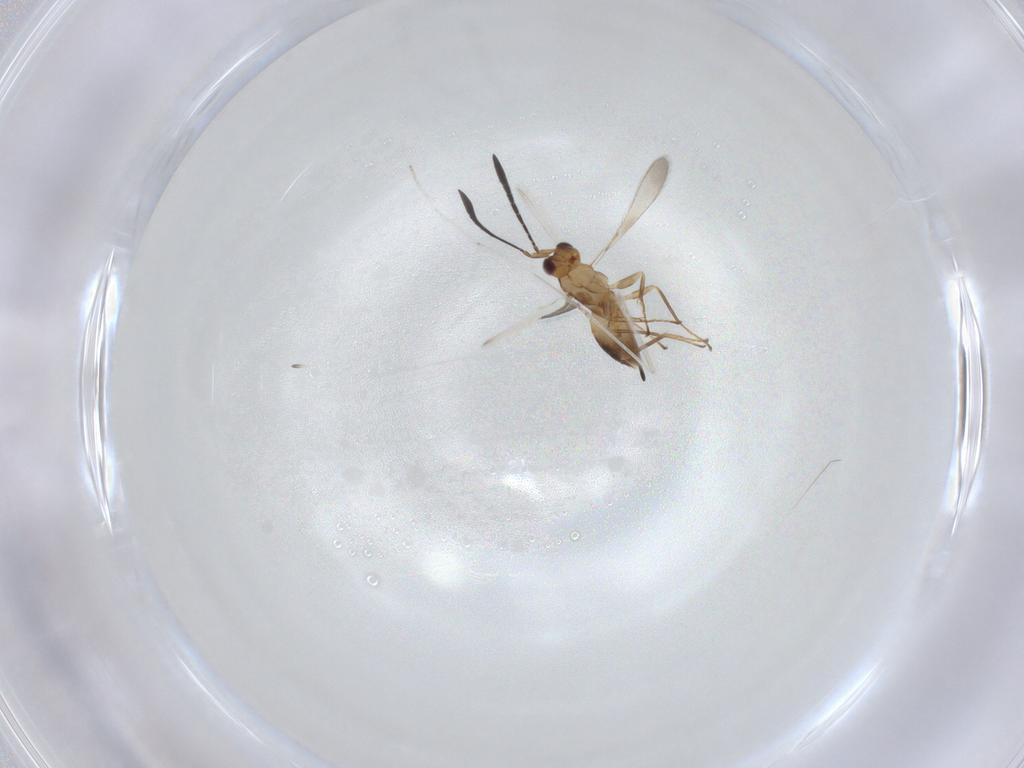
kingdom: Animalia
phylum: Arthropoda
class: Insecta
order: Hymenoptera
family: Mymaridae
